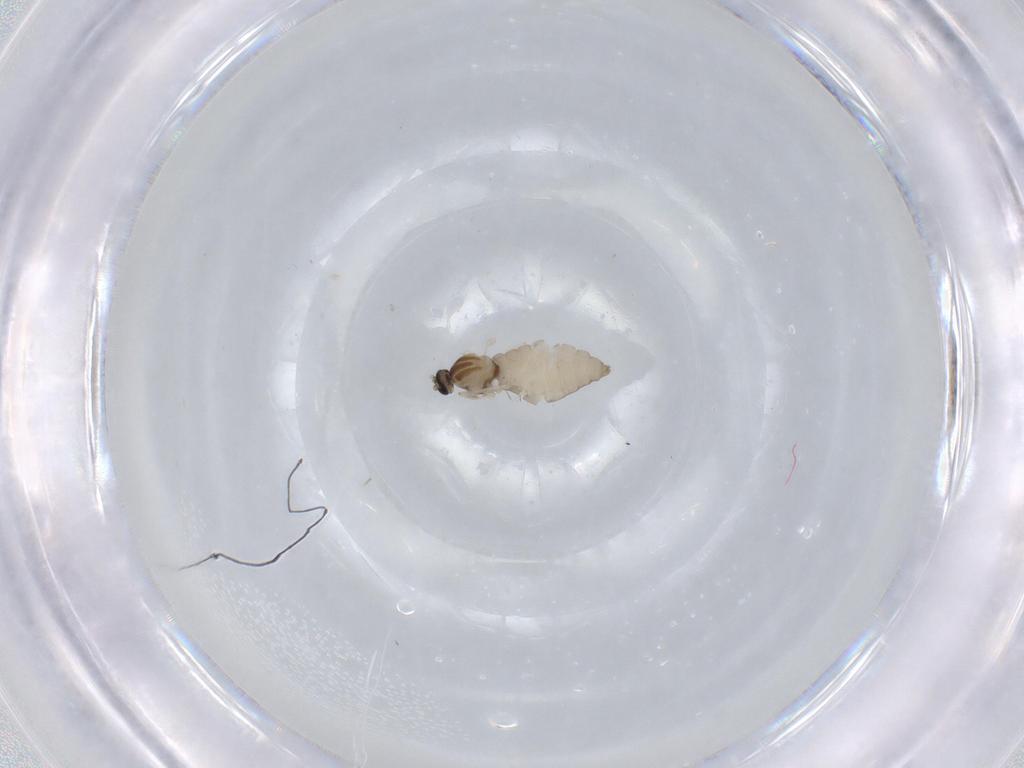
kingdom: Animalia
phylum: Arthropoda
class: Insecta
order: Diptera
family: Cecidomyiidae
